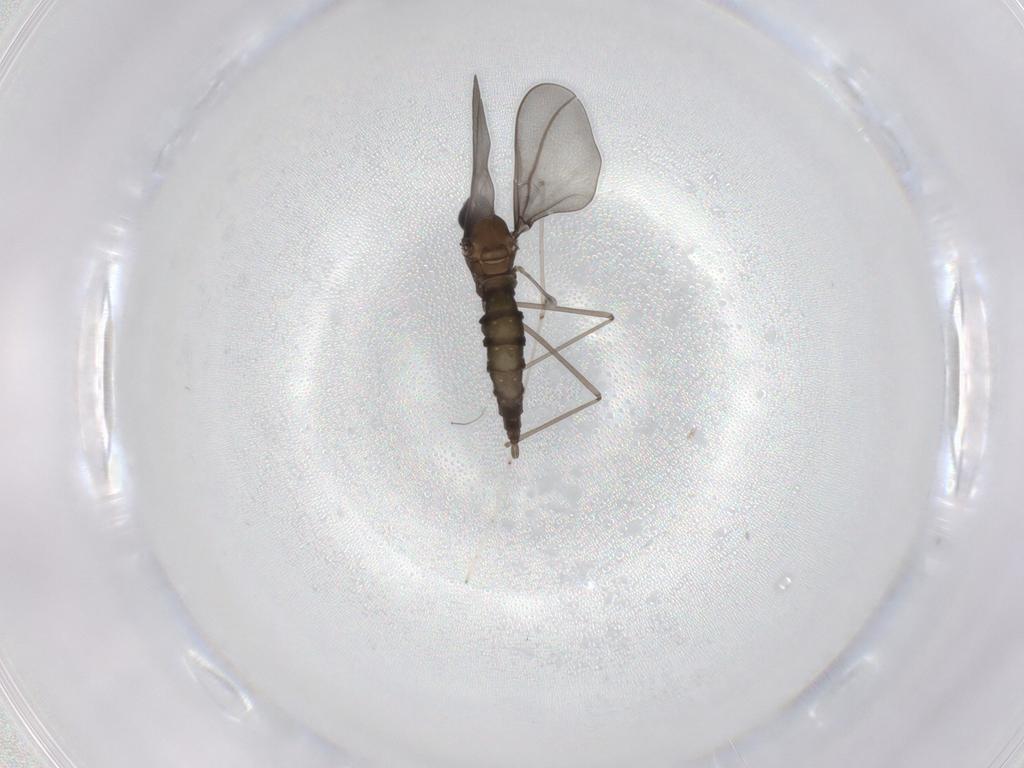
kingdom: Animalia
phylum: Arthropoda
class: Insecta
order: Diptera
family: Cecidomyiidae
